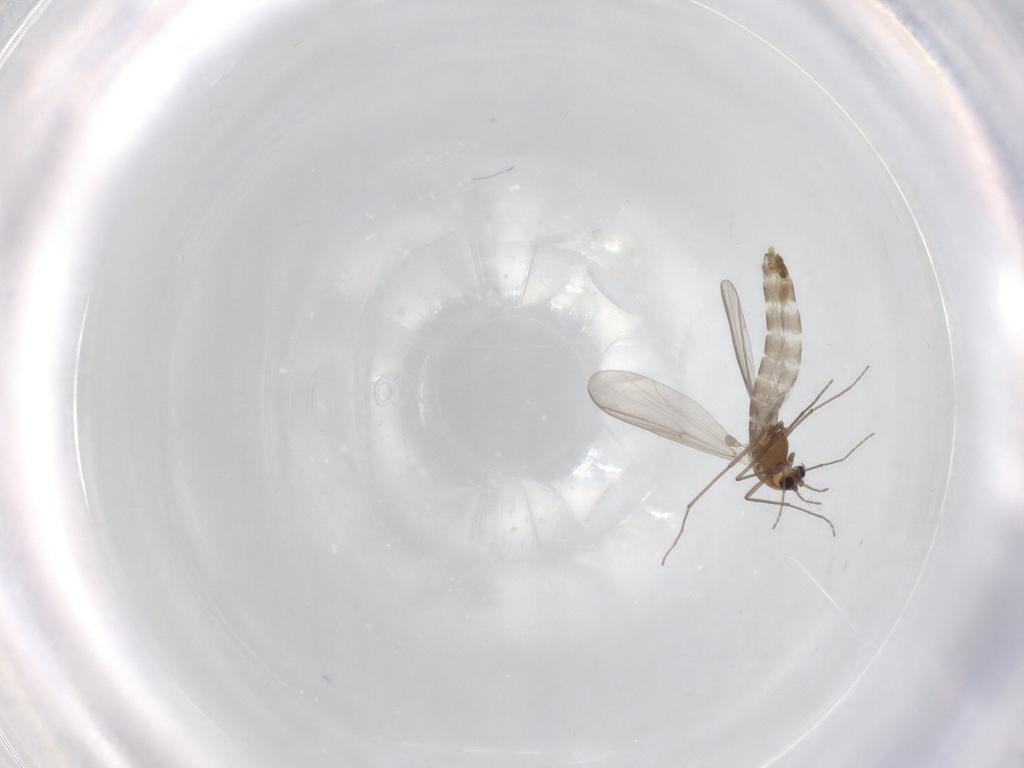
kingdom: Animalia
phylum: Arthropoda
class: Insecta
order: Diptera
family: Chironomidae
